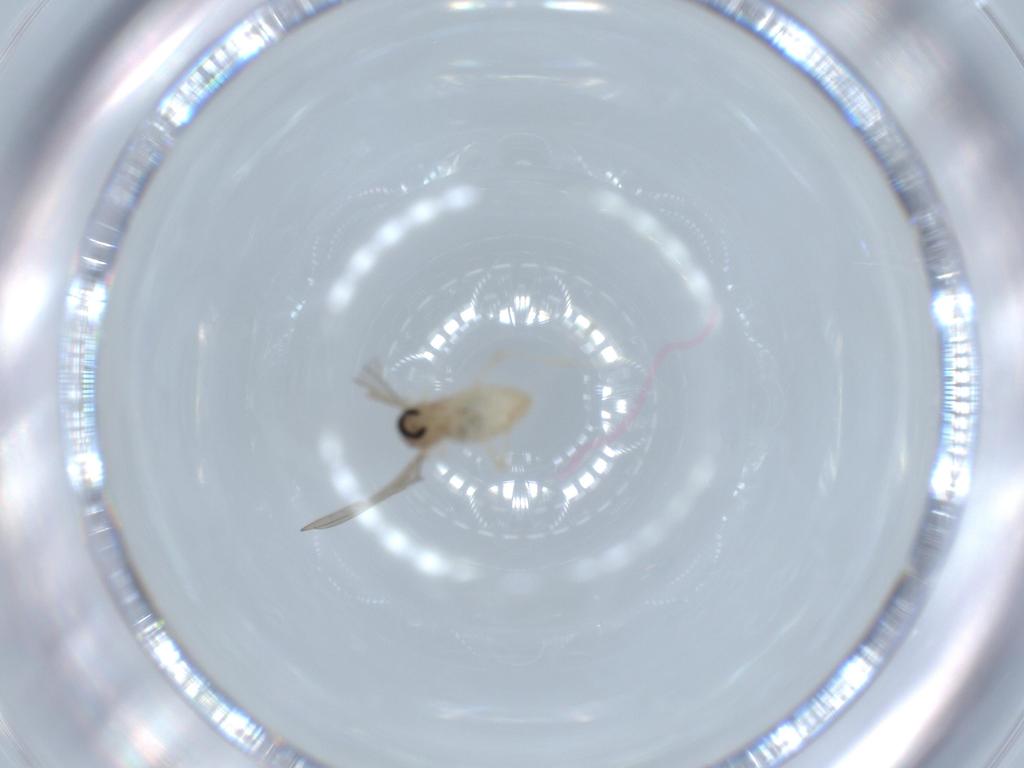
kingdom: Animalia
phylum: Arthropoda
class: Insecta
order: Diptera
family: Cecidomyiidae
